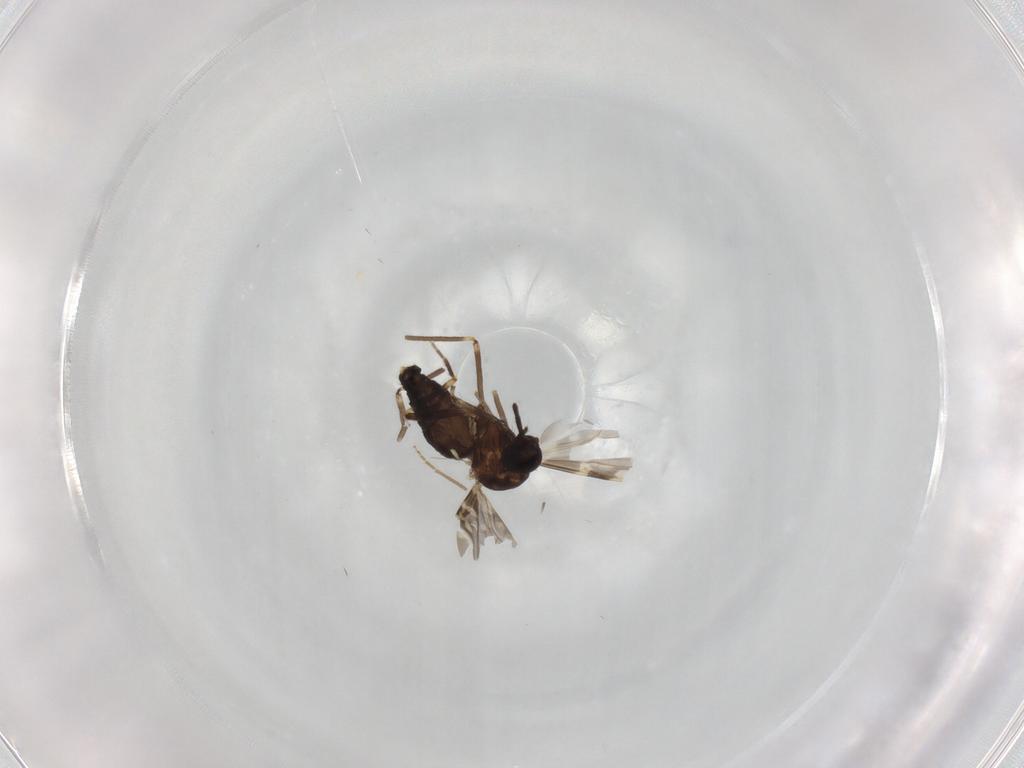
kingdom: Animalia
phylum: Arthropoda
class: Insecta
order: Diptera
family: Ceratopogonidae
